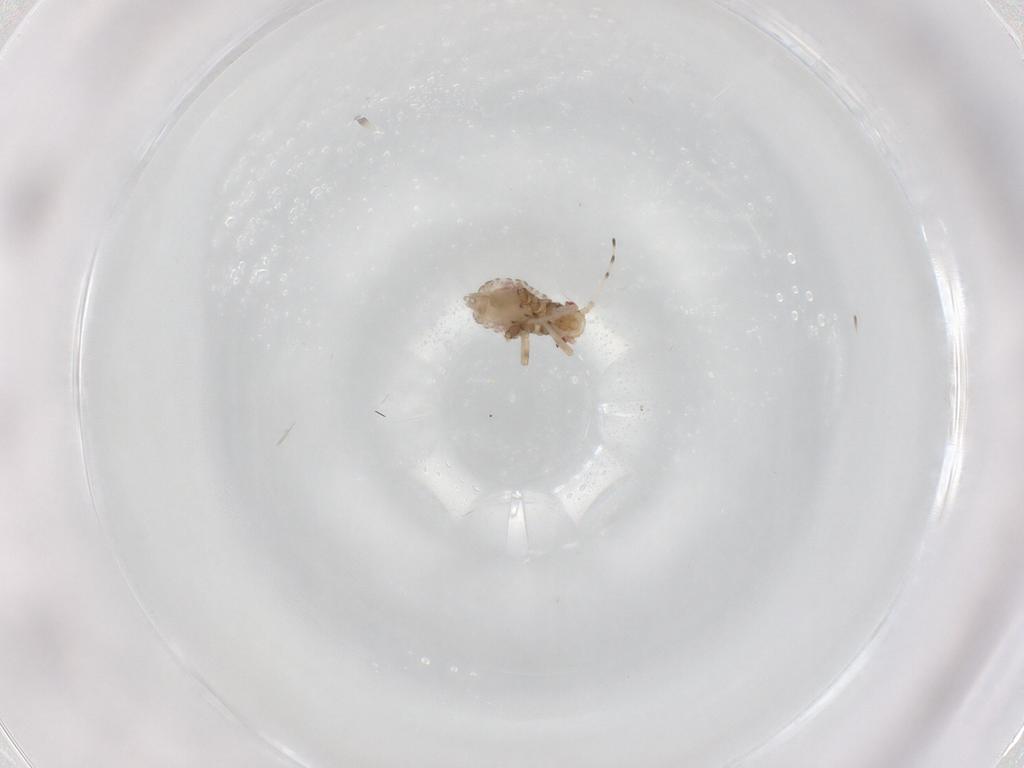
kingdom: Animalia
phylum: Arthropoda
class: Insecta
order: Hemiptera
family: Aphididae
